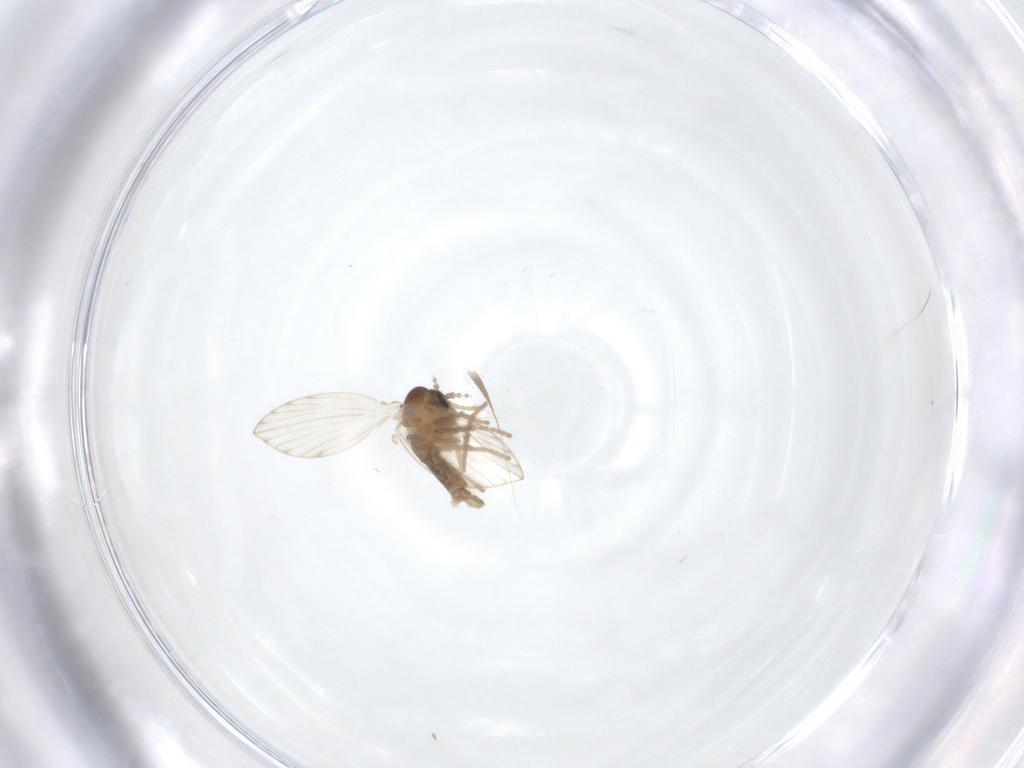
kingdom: Animalia
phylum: Arthropoda
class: Insecta
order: Diptera
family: Psychodidae
